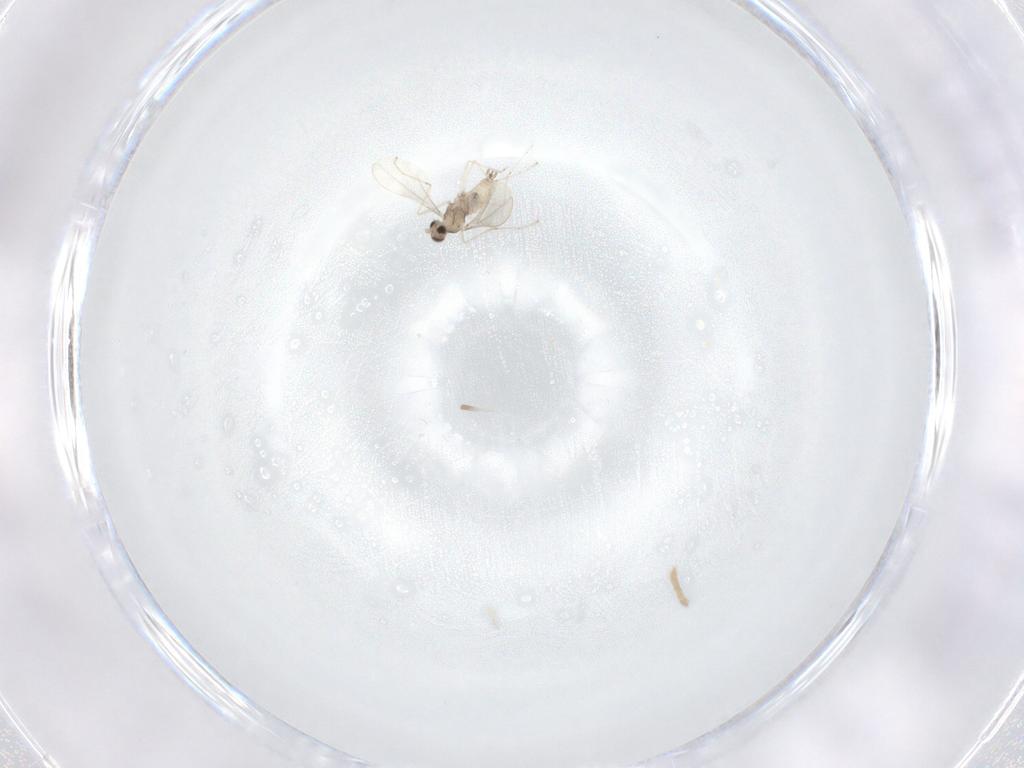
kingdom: Animalia
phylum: Arthropoda
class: Insecta
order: Diptera
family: Cecidomyiidae
